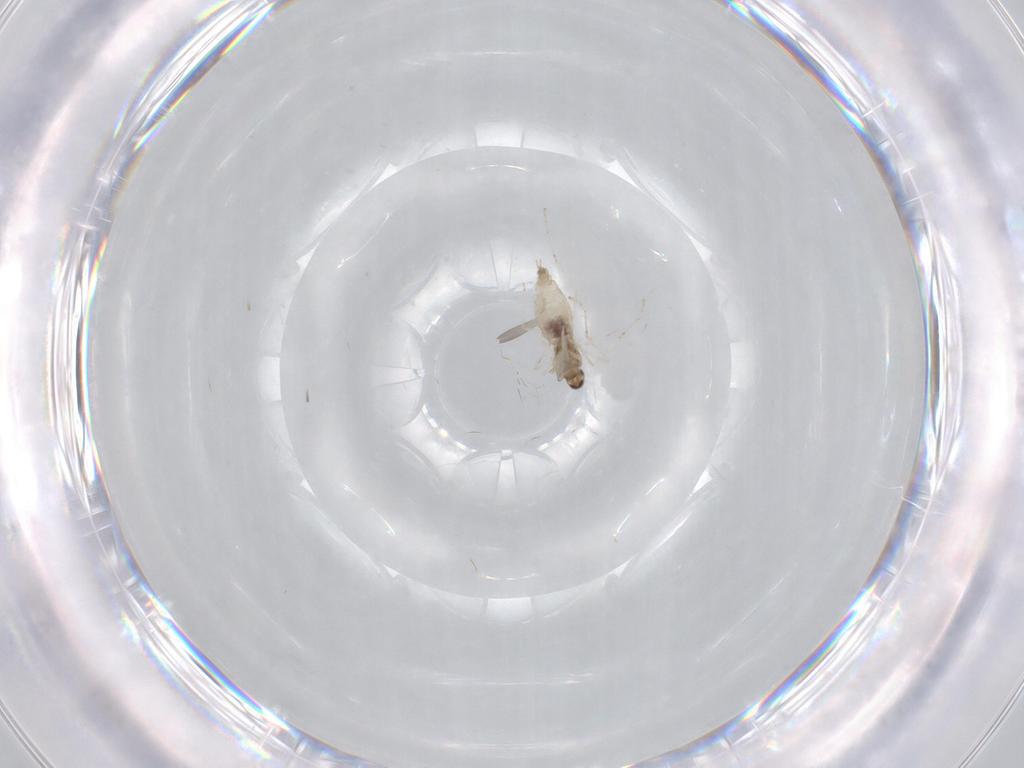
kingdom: Animalia
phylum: Arthropoda
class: Insecta
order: Diptera
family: Cecidomyiidae
